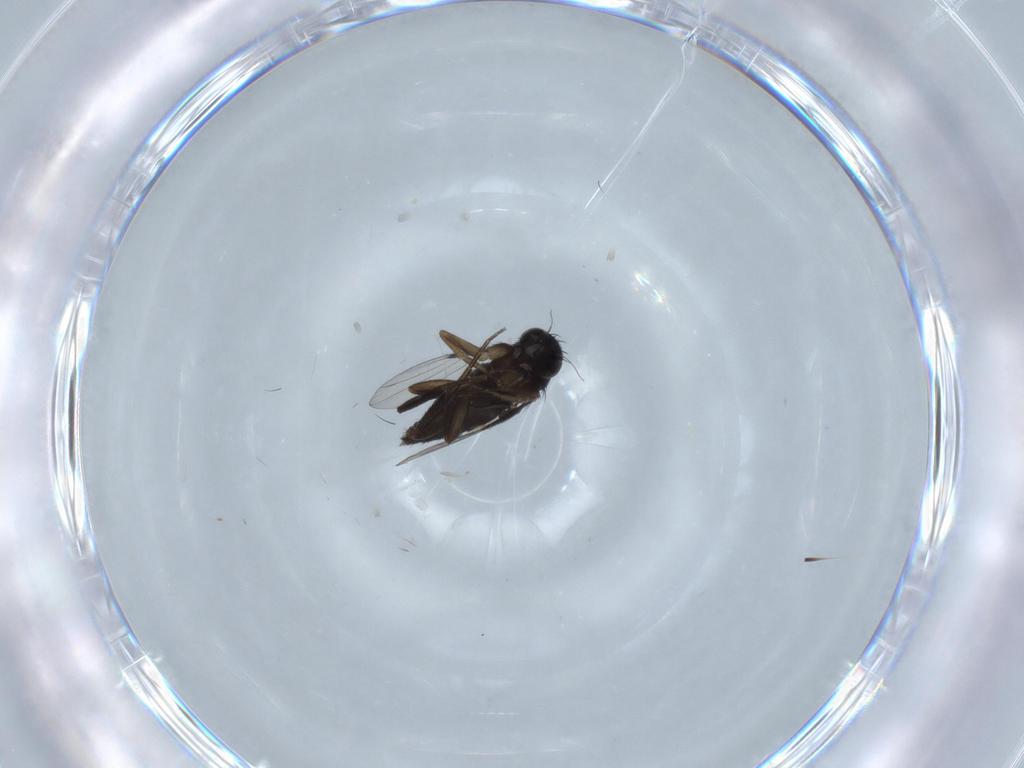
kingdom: Animalia
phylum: Arthropoda
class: Insecta
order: Diptera
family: Phoridae
